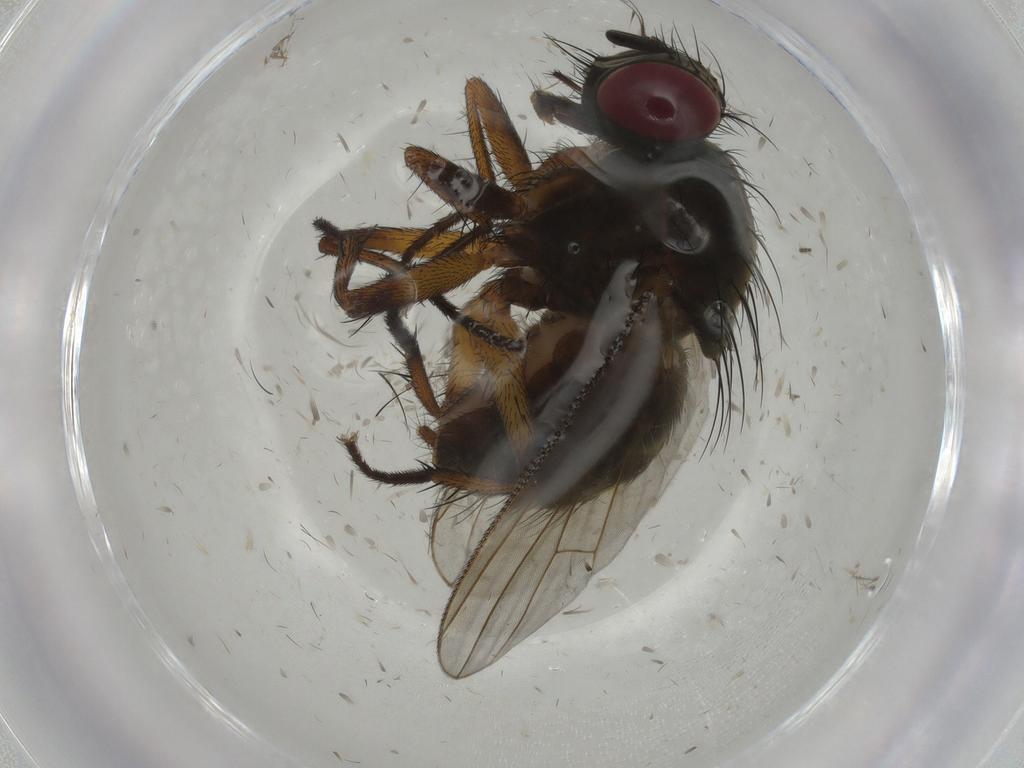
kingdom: Animalia
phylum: Arthropoda
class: Insecta
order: Diptera
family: Muscidae
